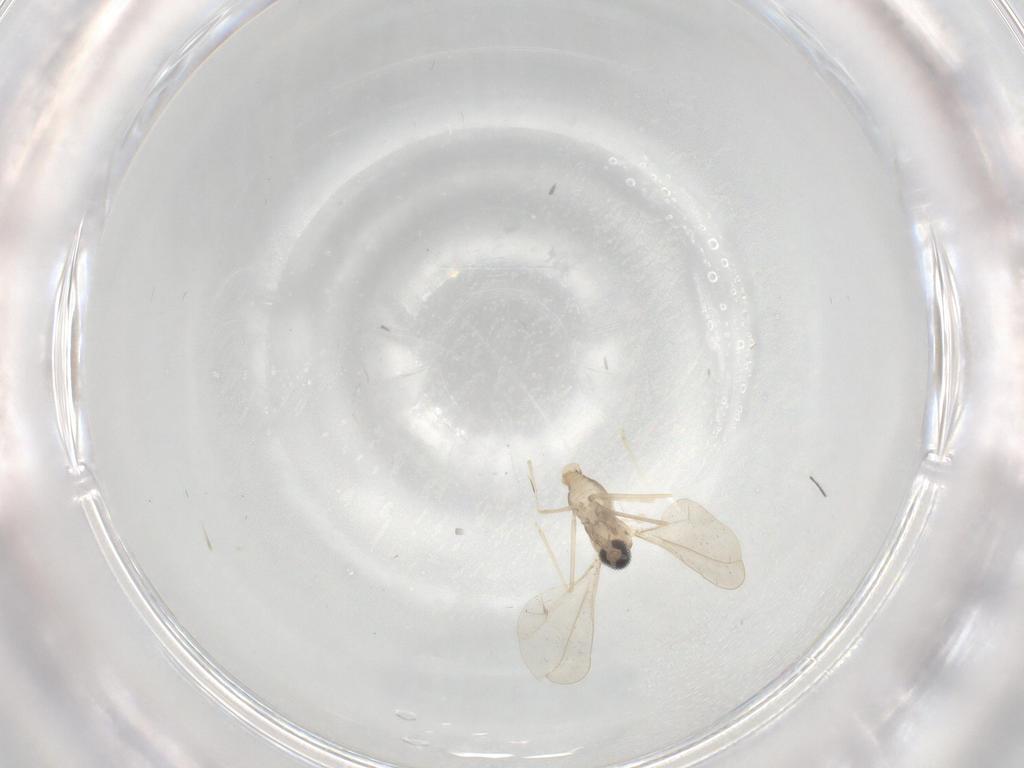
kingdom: Animalia
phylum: Arthropoda
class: Insecta
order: Diptera
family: Cecidomyiidae
